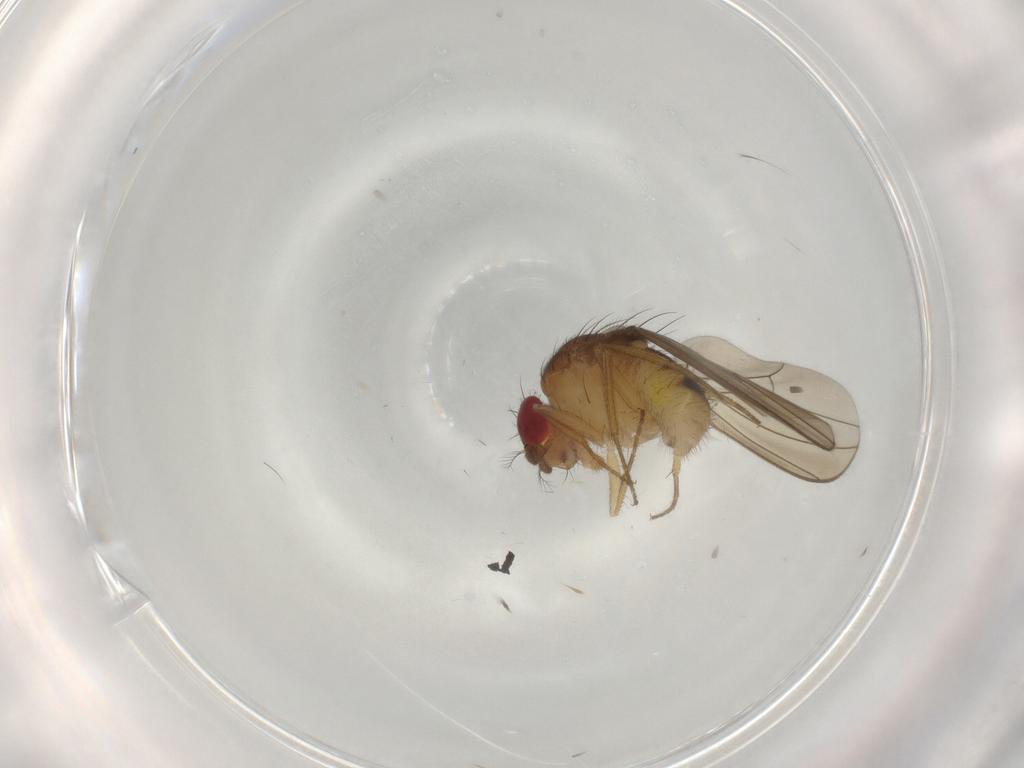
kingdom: Animalia
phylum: Arthropoda
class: Insecta
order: Diptera
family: Drosophilidae
